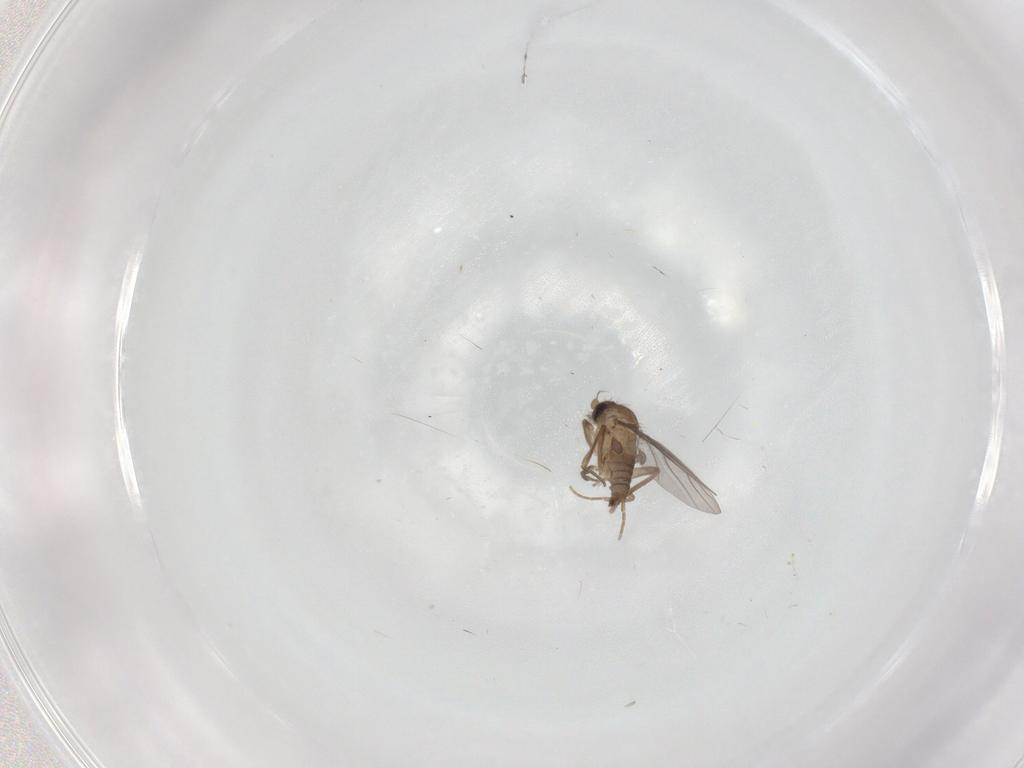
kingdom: Animalia
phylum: Arthropoda
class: Insecta
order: Diptera
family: Cecidomyiidae
